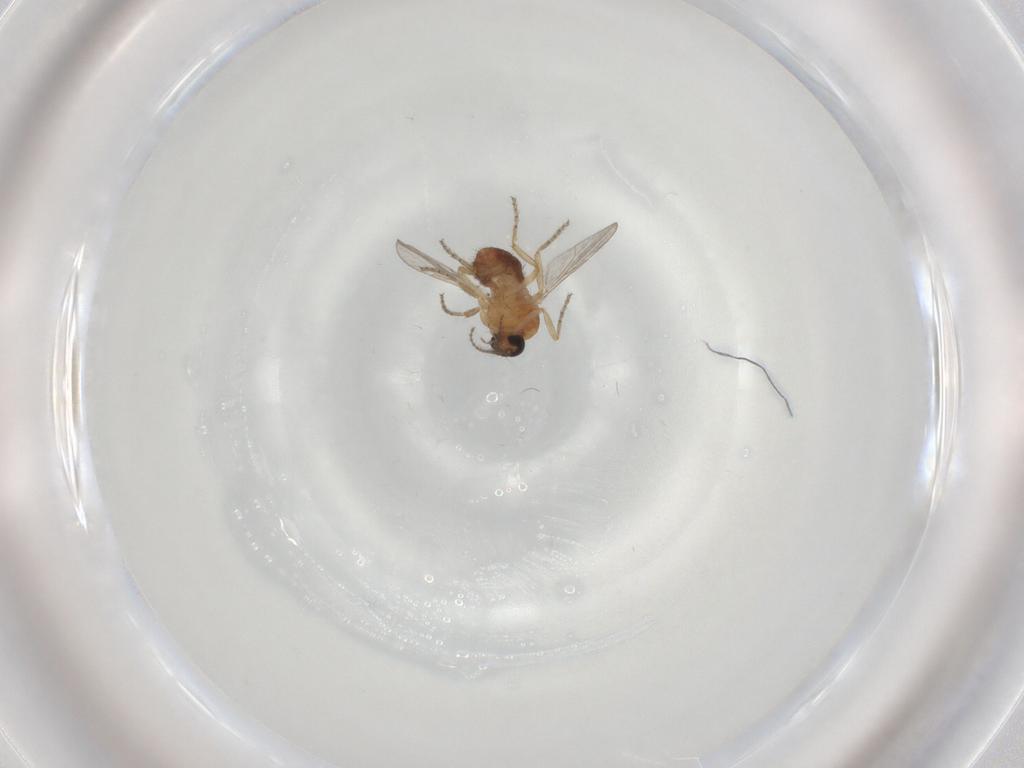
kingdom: Animalia
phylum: Arthropoda
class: Insecta
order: Diptera
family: Ceratopogonidae
